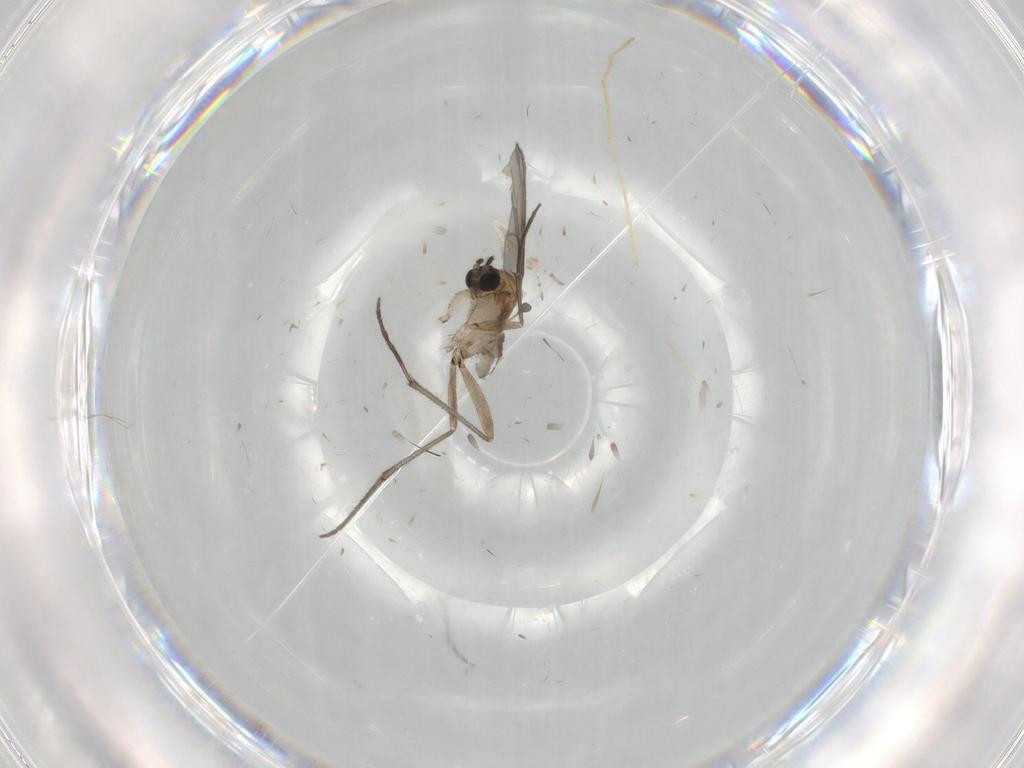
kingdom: Animalia
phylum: Arthropoda
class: Insecta
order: Diptera
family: Sciaridae
